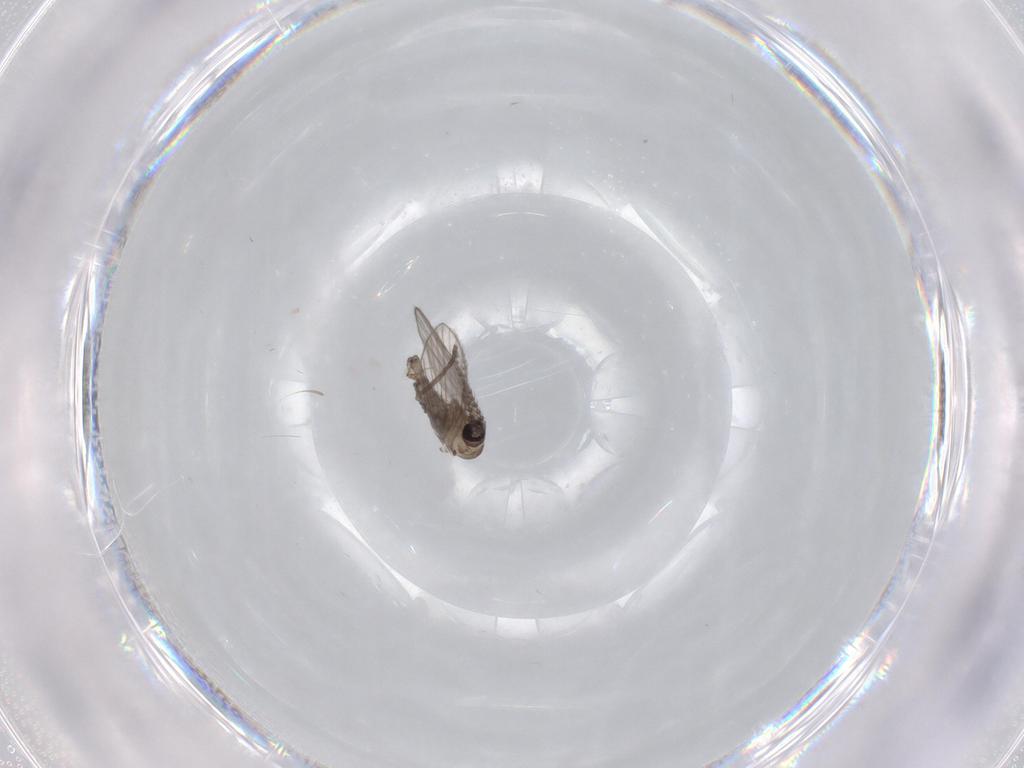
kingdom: Animalia
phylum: Arthropoda
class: Insecta
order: Diptera
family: Psychodidae
